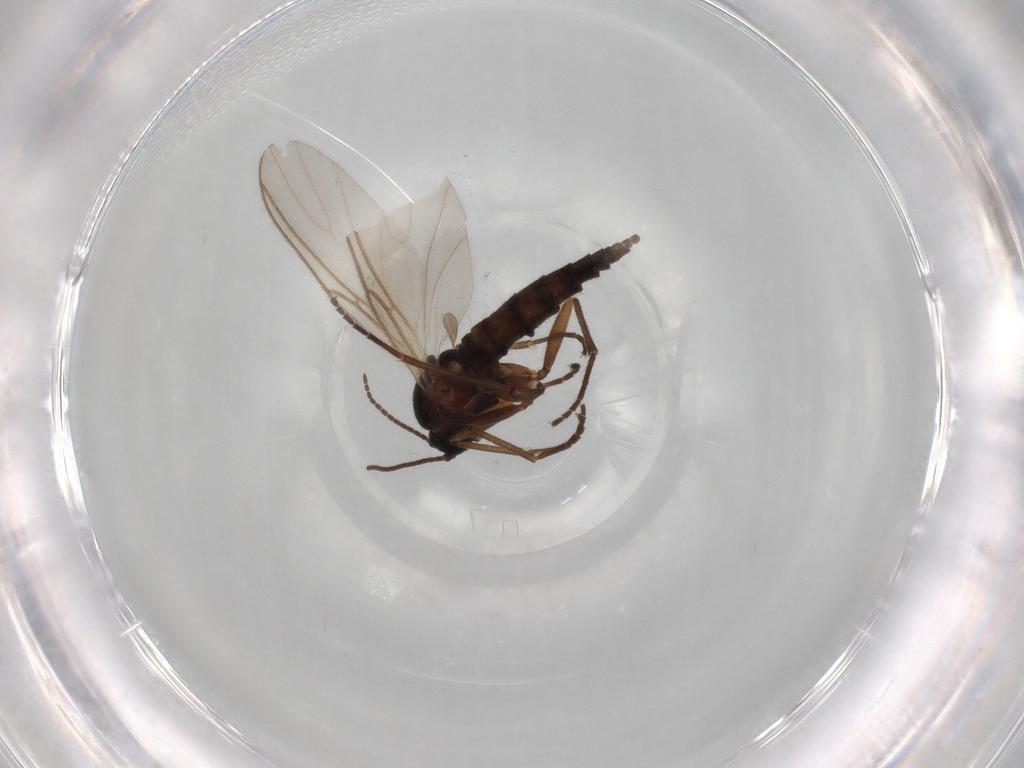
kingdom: Animalia
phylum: Arthropoda
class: Insecta
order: Diptera
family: Sciaridae
